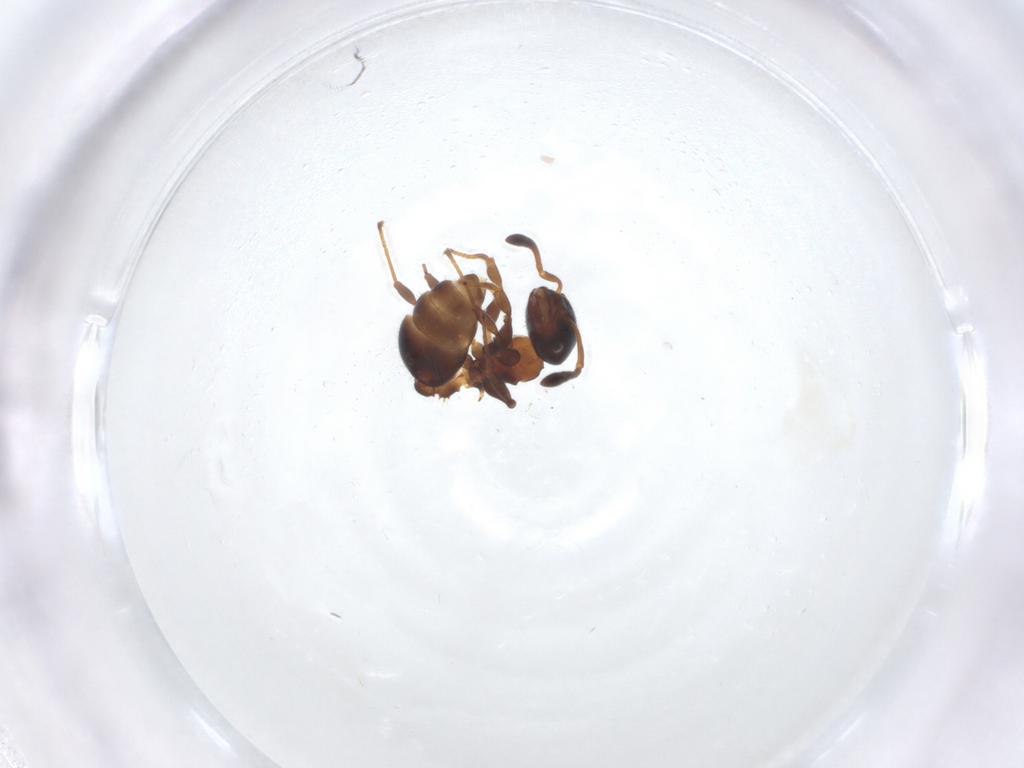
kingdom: Animalia
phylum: Arthropoda
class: Insecta
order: Hymenoptera
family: Formicidae
